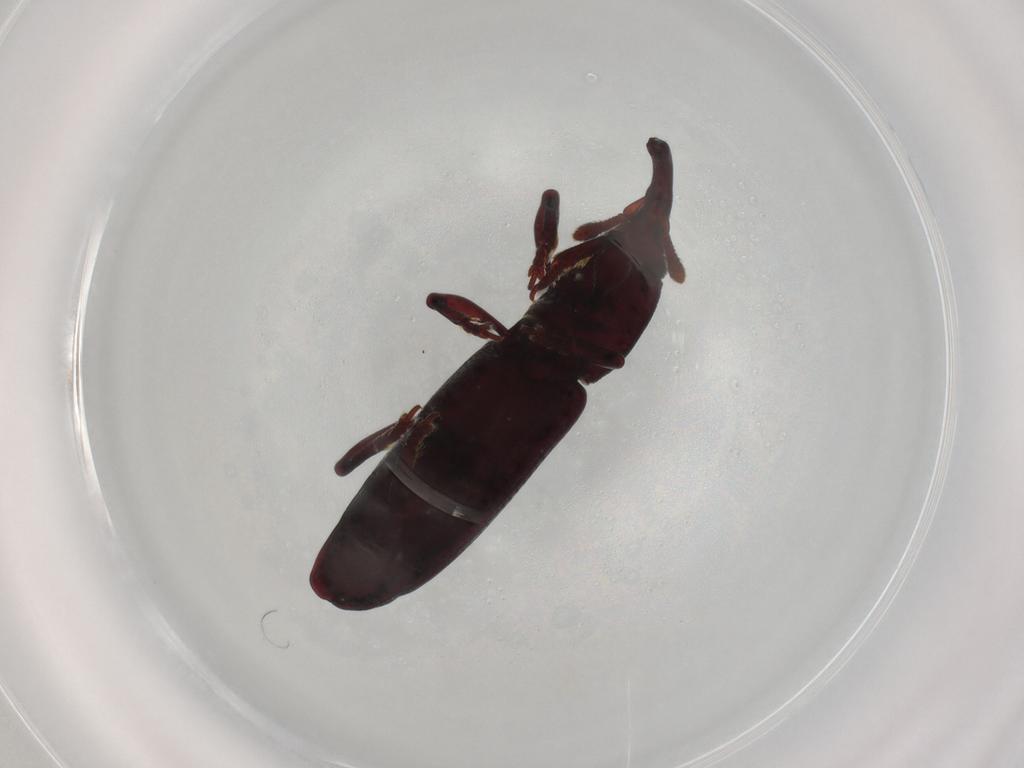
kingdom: Animalia
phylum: Arthropoda
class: Insecta
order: Coleoptera
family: Curculionidae
